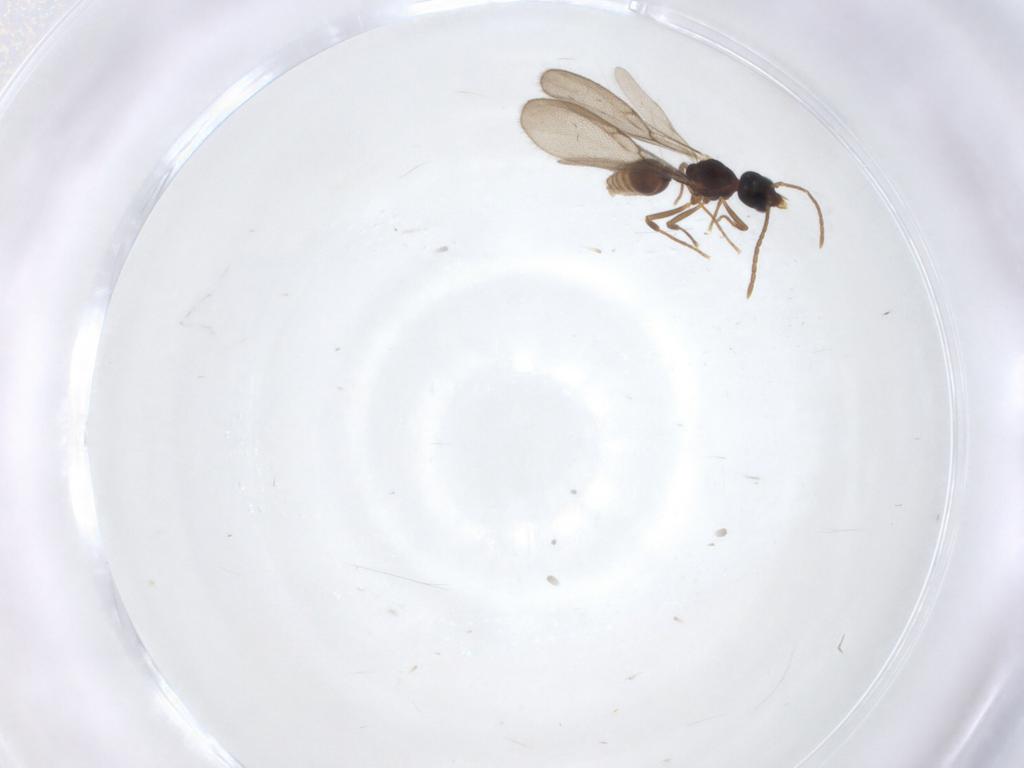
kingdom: Animalia
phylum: Arthropoda
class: Insecta
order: Hymenoptera
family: Formicidae
